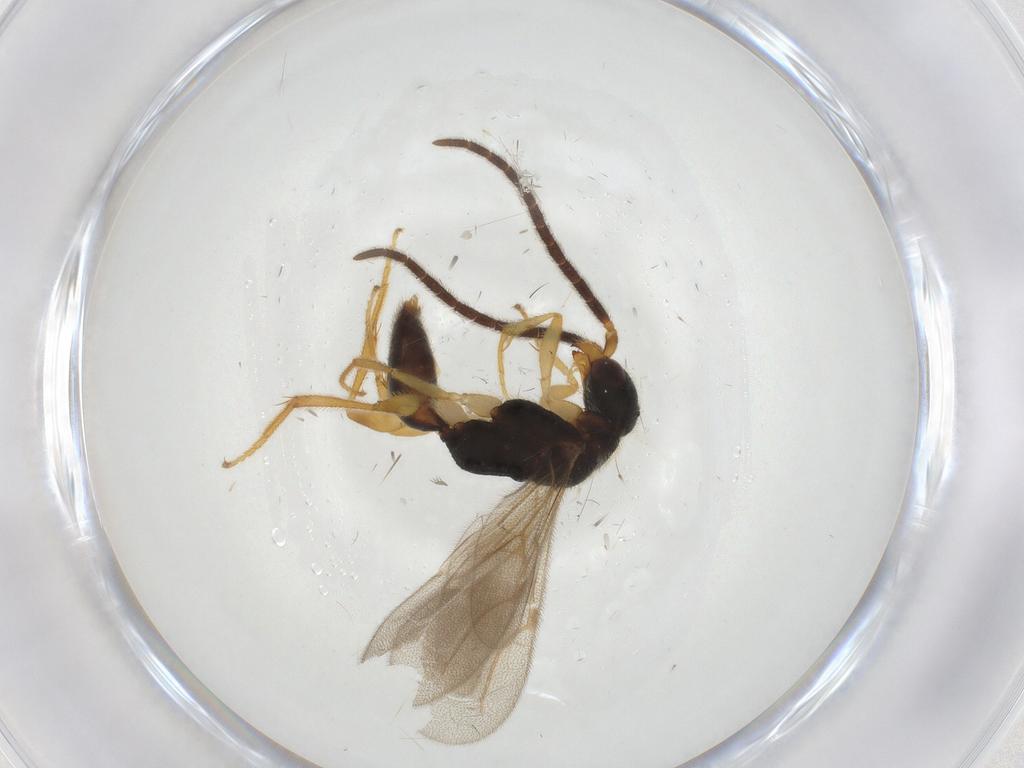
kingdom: Animalia
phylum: Arthropoda
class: Insecta
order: Hymenoptera
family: Bethylidae
